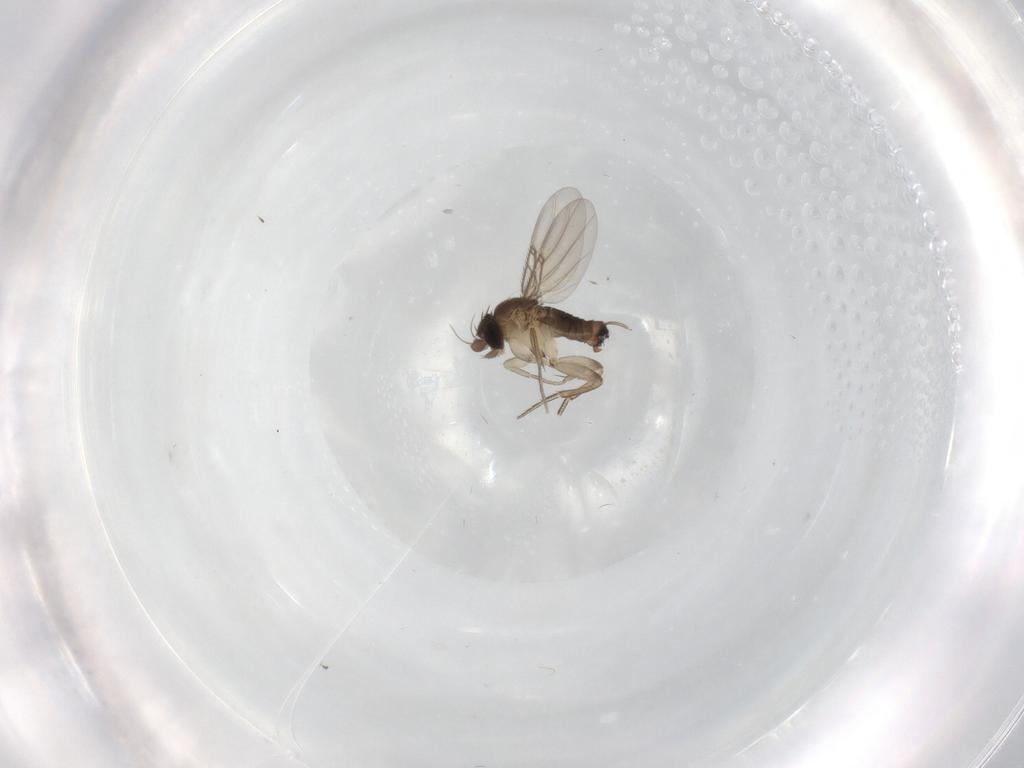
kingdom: Animalia
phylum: Arthropoda
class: Insecta
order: Diptera
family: Phoridae
